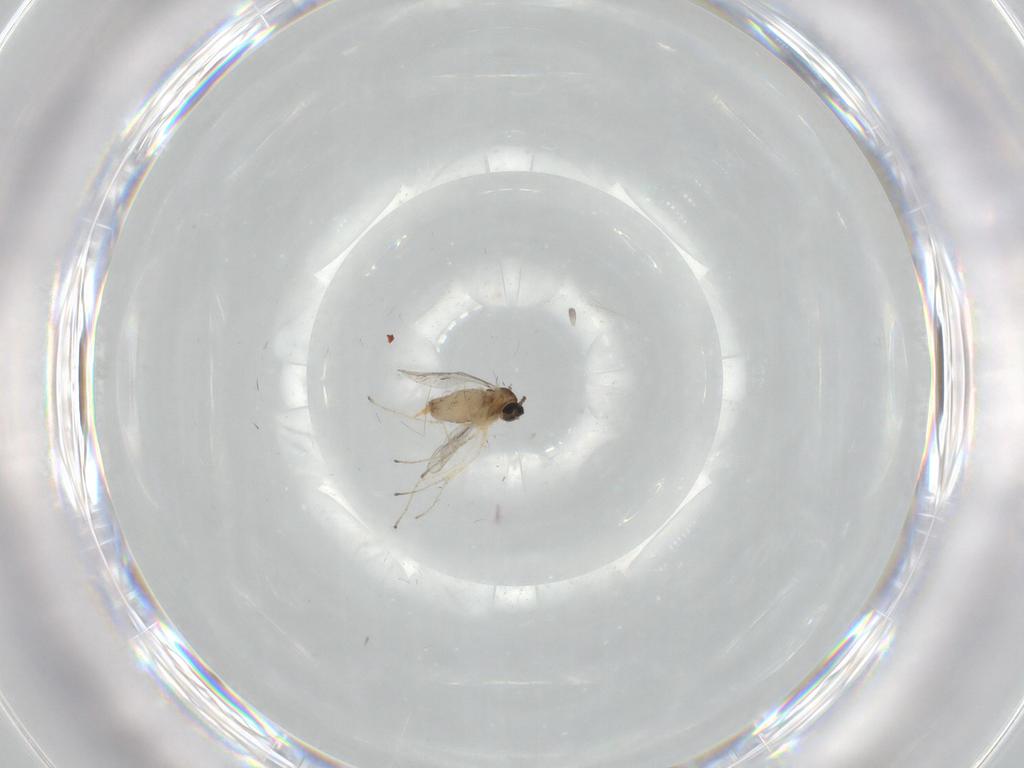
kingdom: Animalia
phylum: Arthropoda
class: Insecta
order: Diptera
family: Cecidomyiidae
